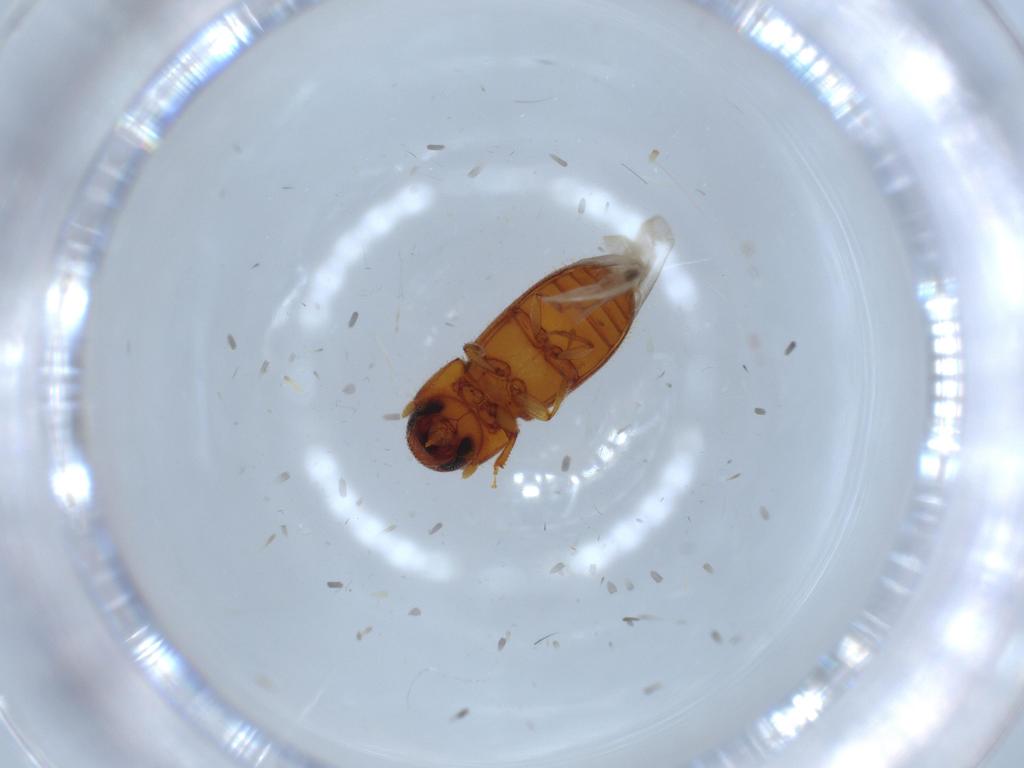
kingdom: Animalia
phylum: Arthropoda
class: Insecta
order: Coleoptera
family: Curculionidae
